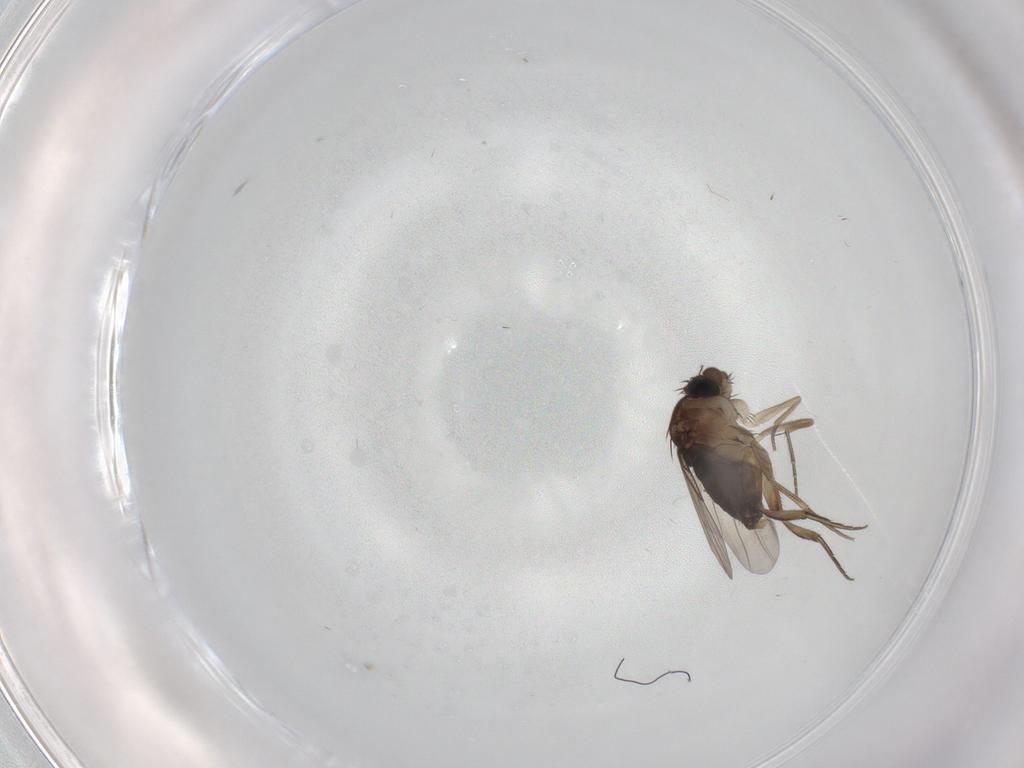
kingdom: Animalia
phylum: Arthropoda
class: Insecta
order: Diptera
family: Phoridae
